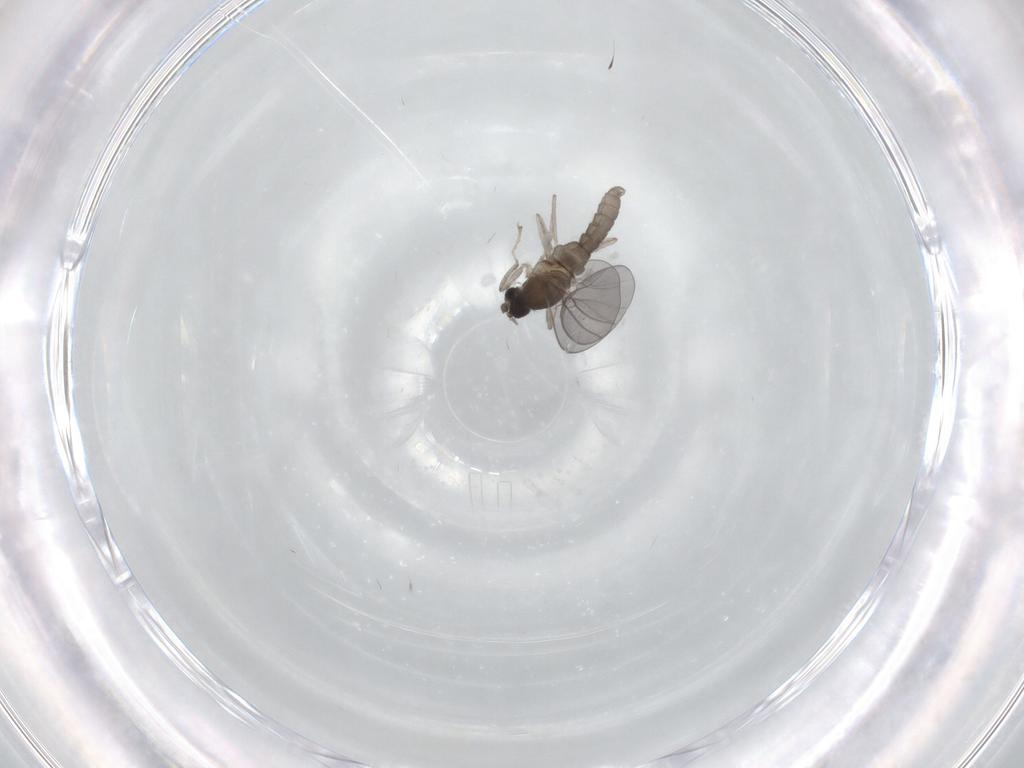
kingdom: Animalia
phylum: Arthropoda
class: Insecta
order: Diptera
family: Cecidomyiidae
